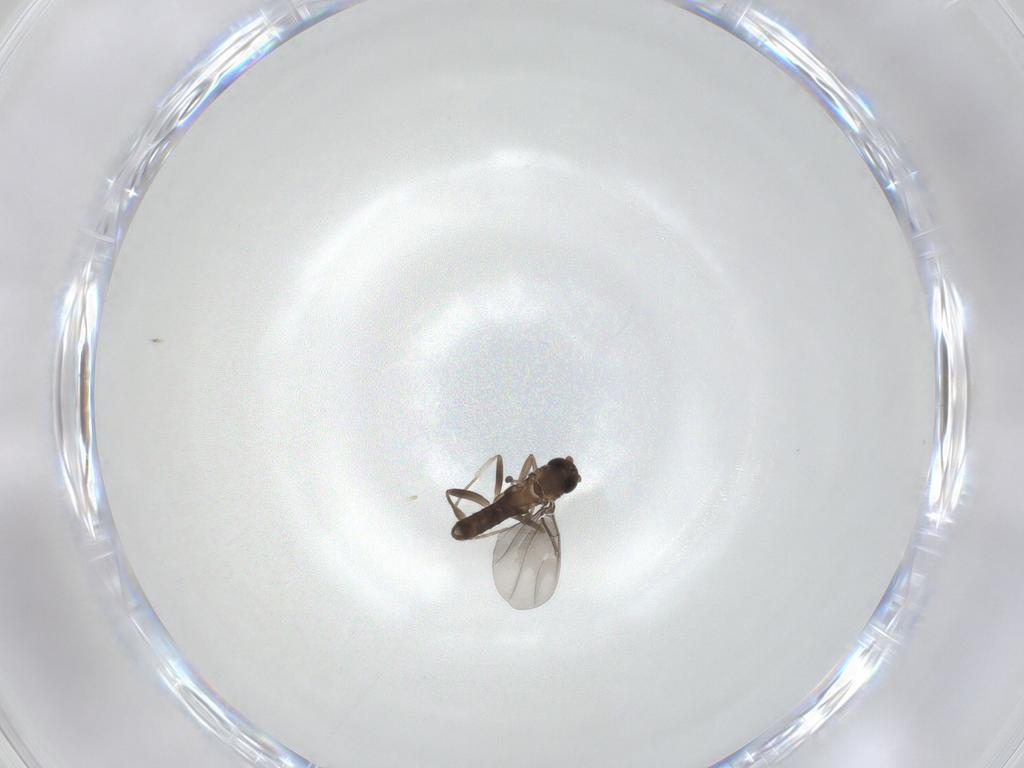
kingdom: Animalia
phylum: Arthropoda
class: Insecta
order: Diptera
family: Phoridae
